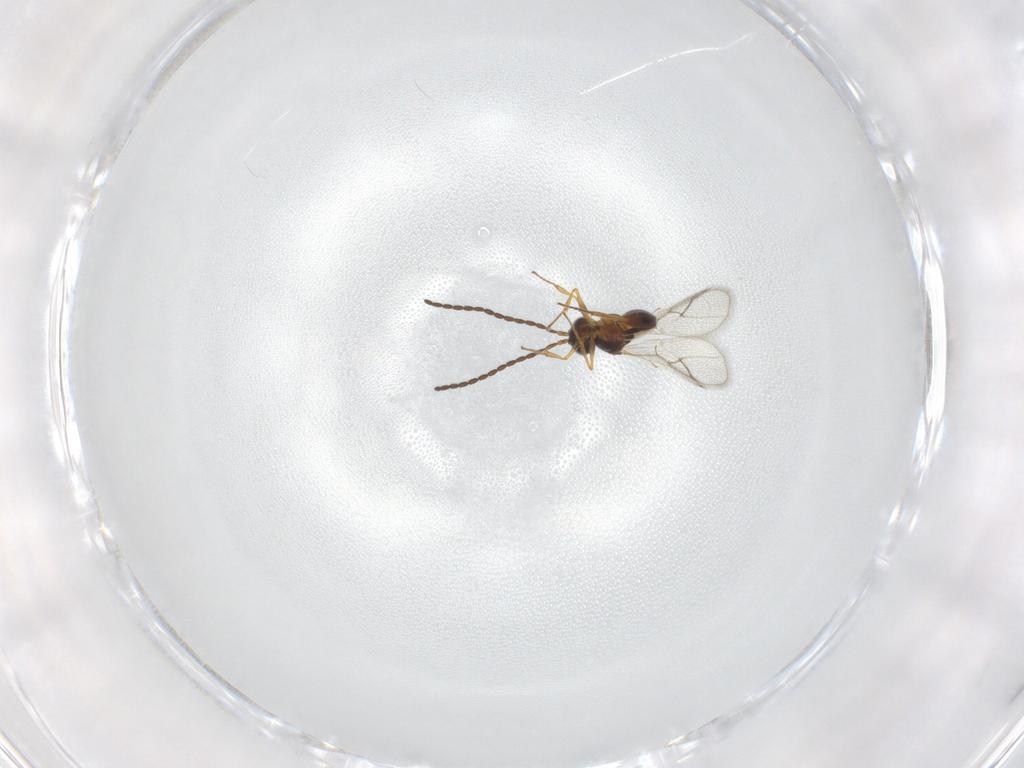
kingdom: Animalia
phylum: Arthropoda
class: Insecta
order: Hymenoptera
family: Figitidae
